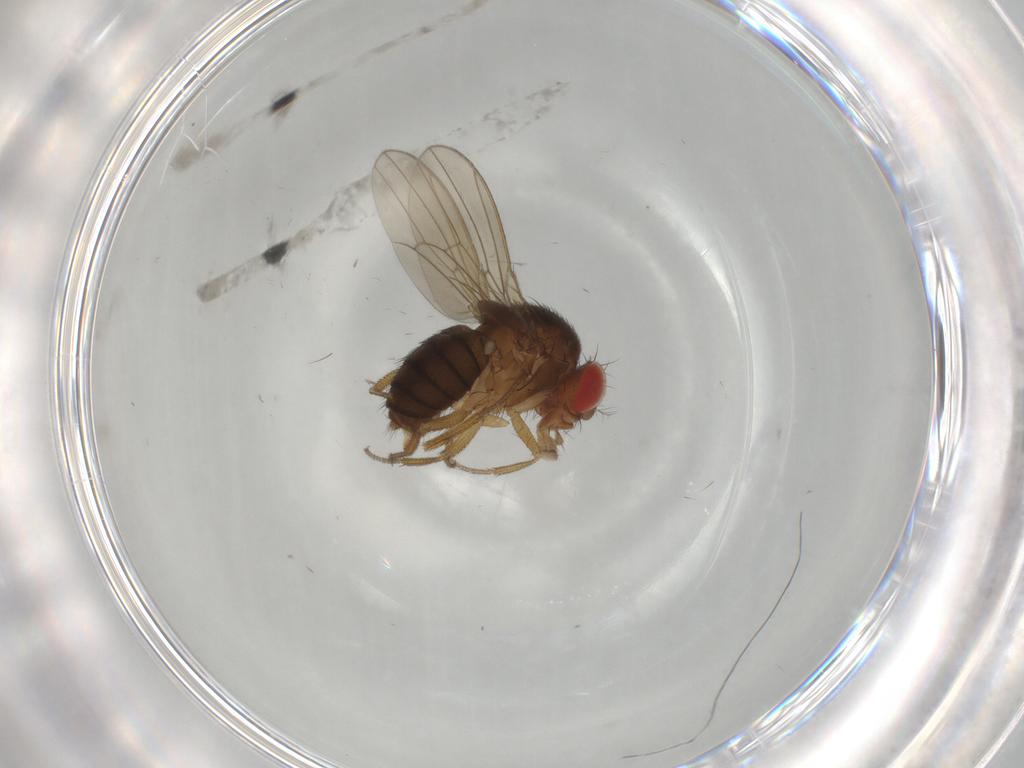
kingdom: Animalia
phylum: Arthropoda
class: Insecta
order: Diptera
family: Drosophilidae
